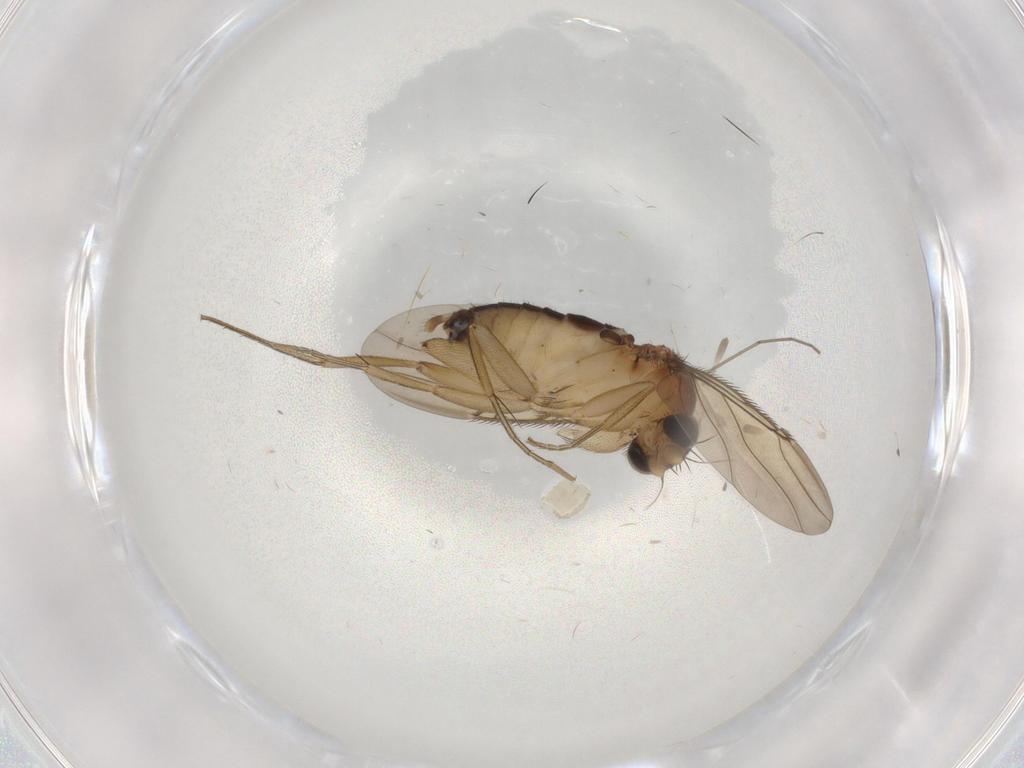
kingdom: Animalia
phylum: Arthropoda
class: Insecta
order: Diptera
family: Phoridae
